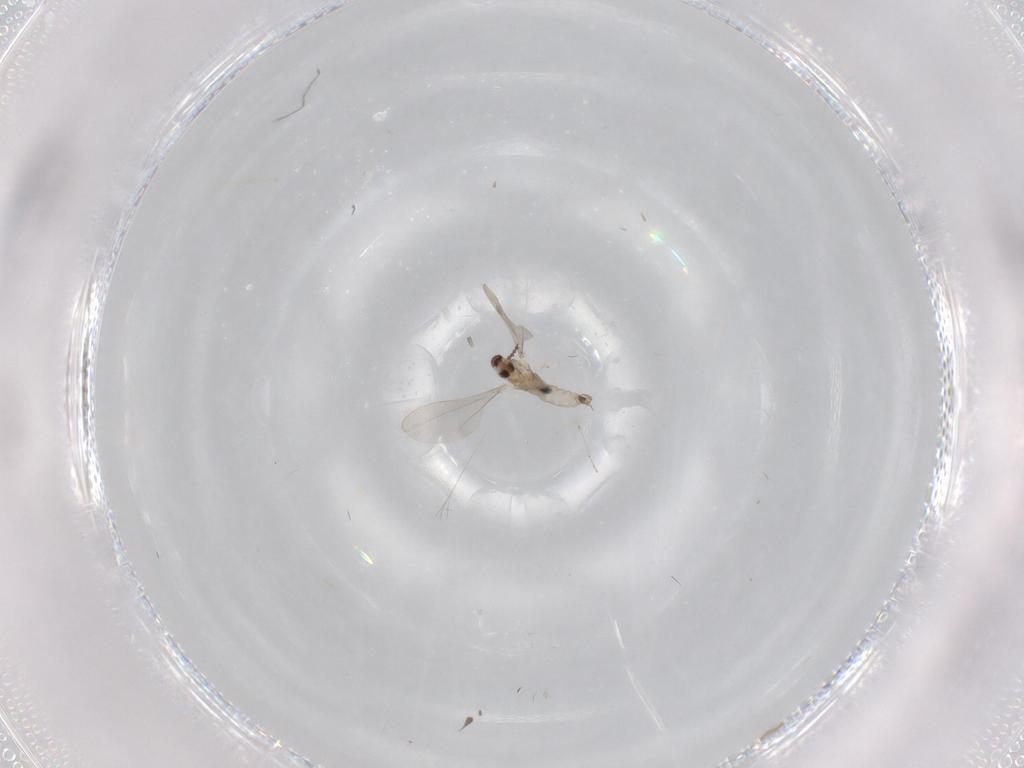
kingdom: Animalia
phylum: Arthropoda
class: Insecta
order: Diptera
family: Cecidomyiidae
